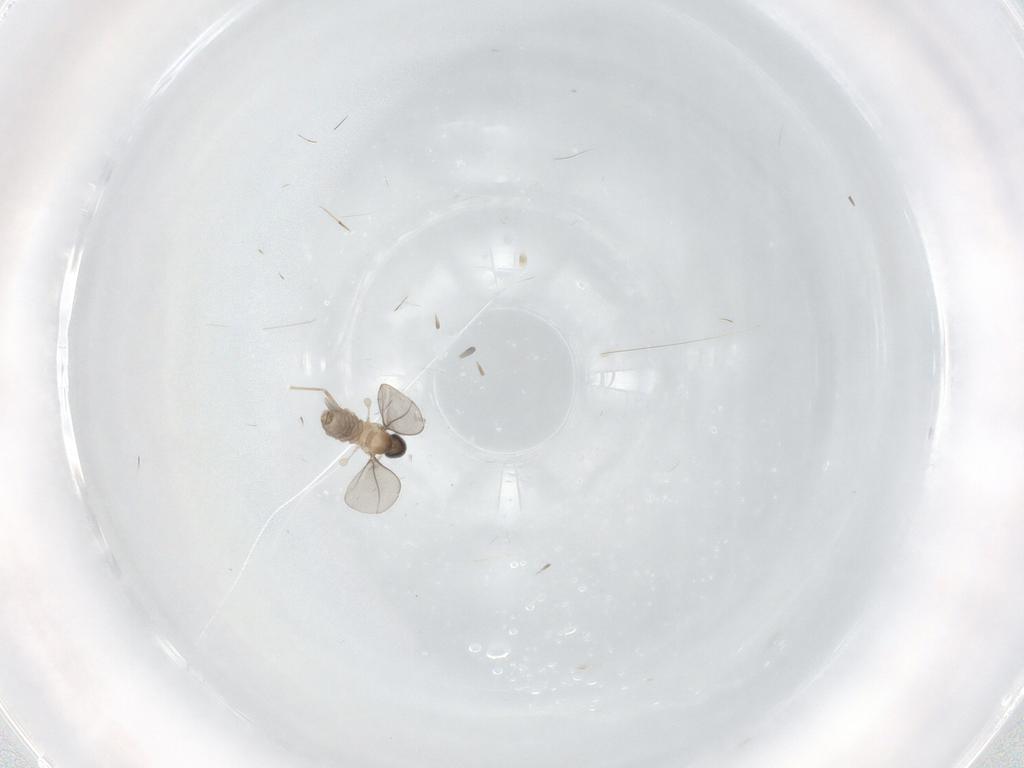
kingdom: Animalia
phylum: Arthropoda
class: Insecta
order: Diptera
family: Cecidomyiidae
